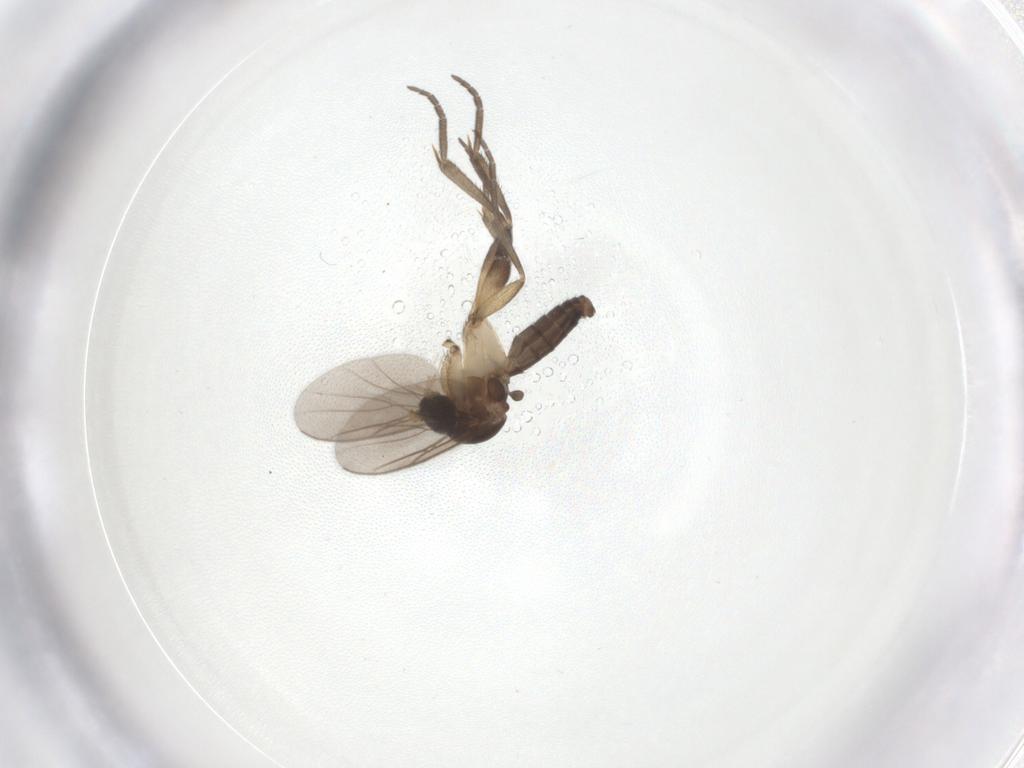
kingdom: Animalia
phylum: Arthropoda
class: Insecta
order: Diptera
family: Mycetophilidae
